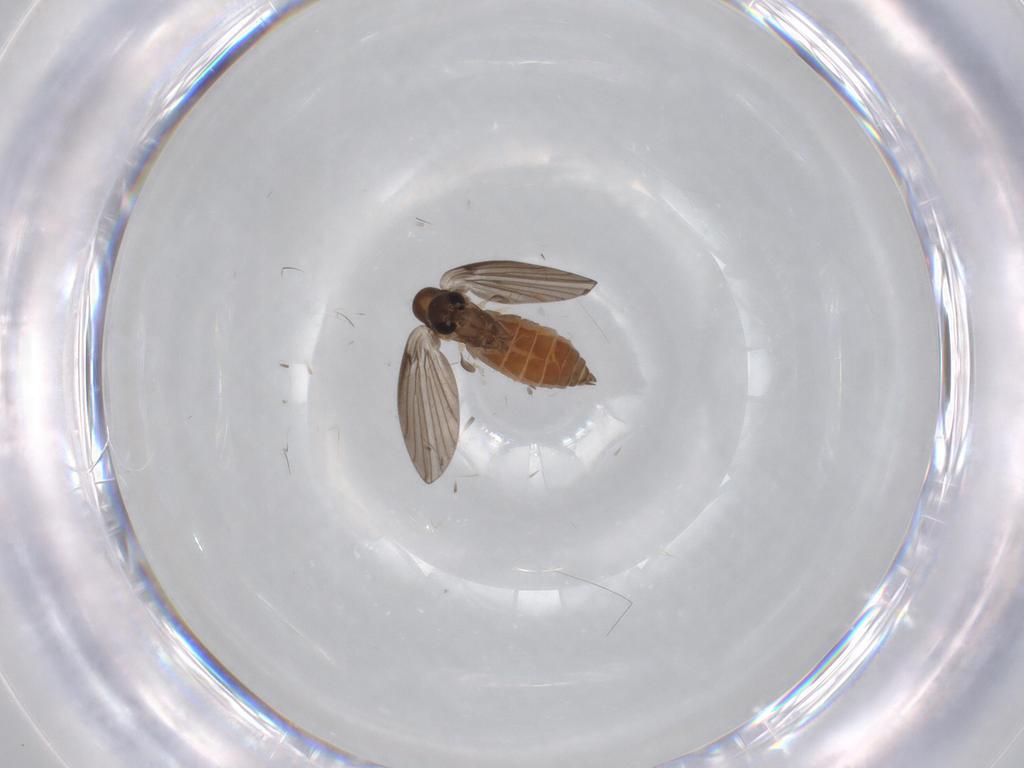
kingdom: Animalia
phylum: Arthropoda
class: Insecta
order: Diptera
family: Psychodidae
